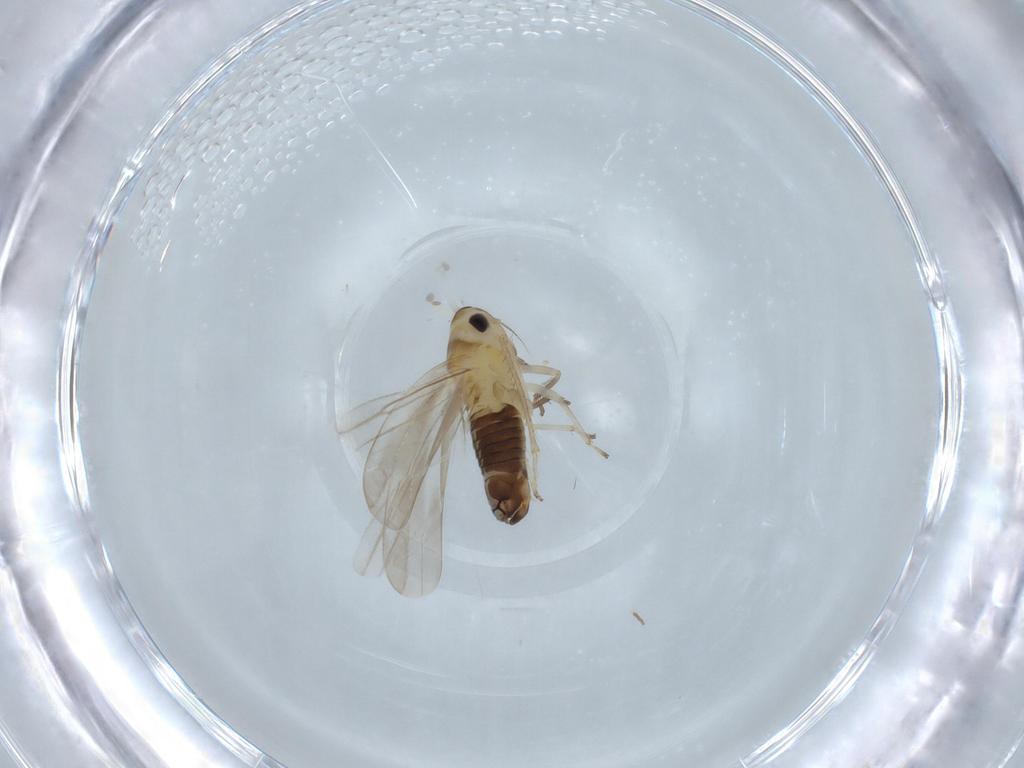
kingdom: Animalia
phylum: Arthropoda
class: Insecta
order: Hemiptera
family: Cicadellidae
